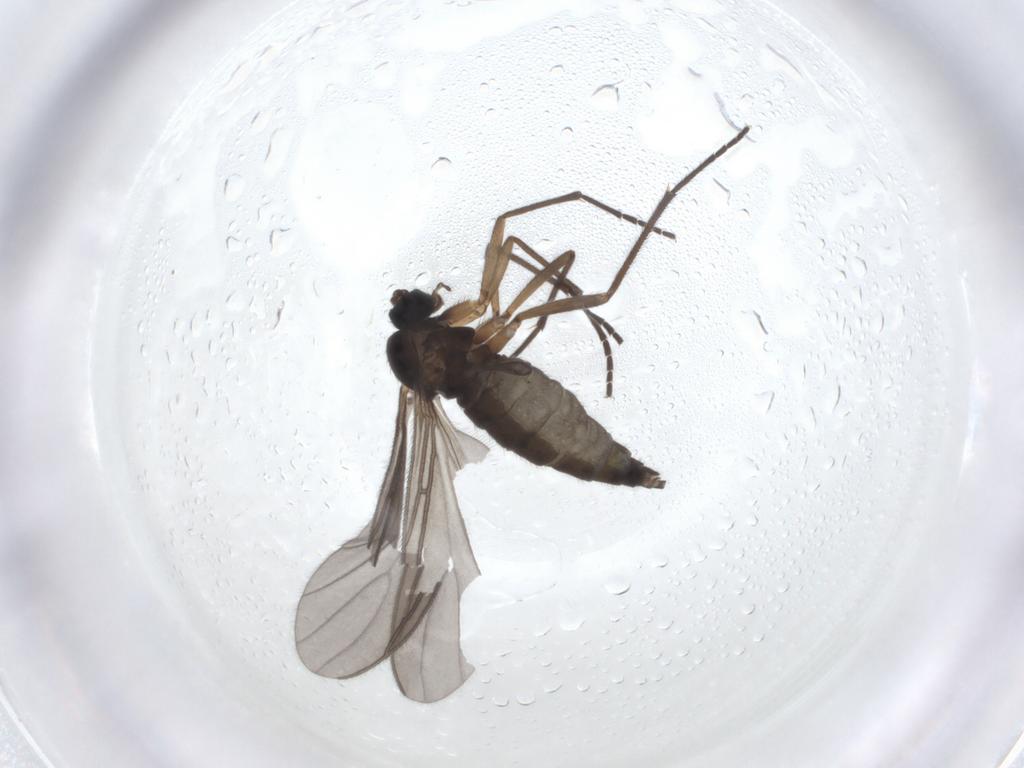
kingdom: Animalia
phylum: Arthropoda
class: Insecta
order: Diptera
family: Sciaridae
